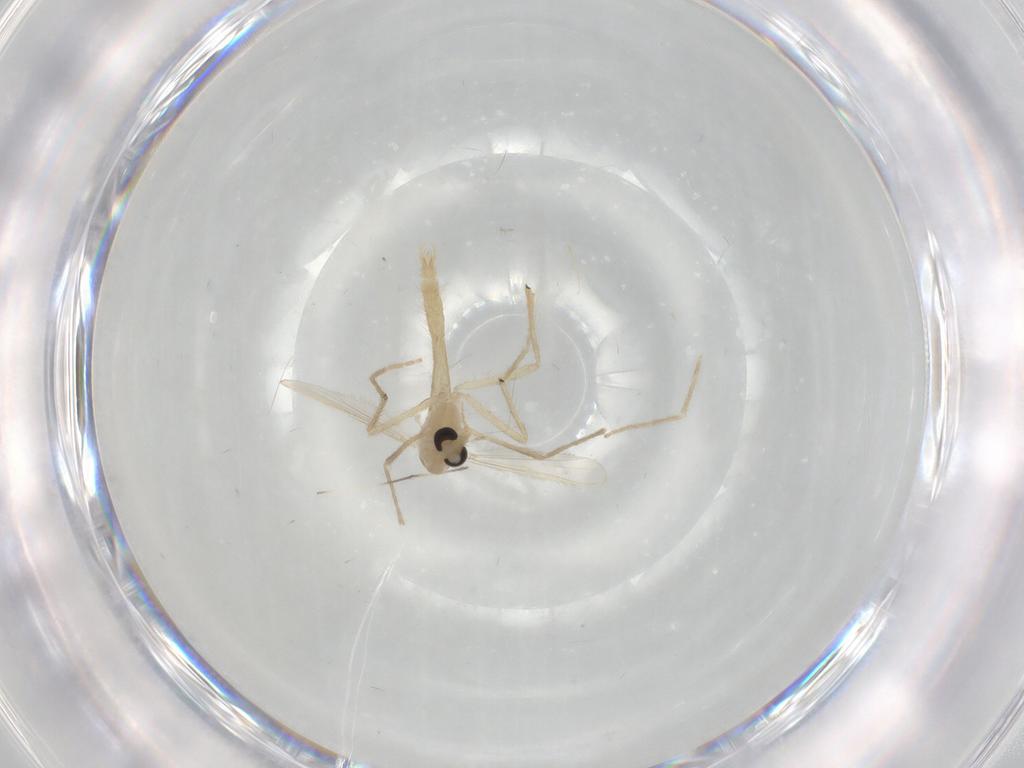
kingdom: Animalia
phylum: Arthropoda
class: Insecta
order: Diptera
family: Chironomidae
